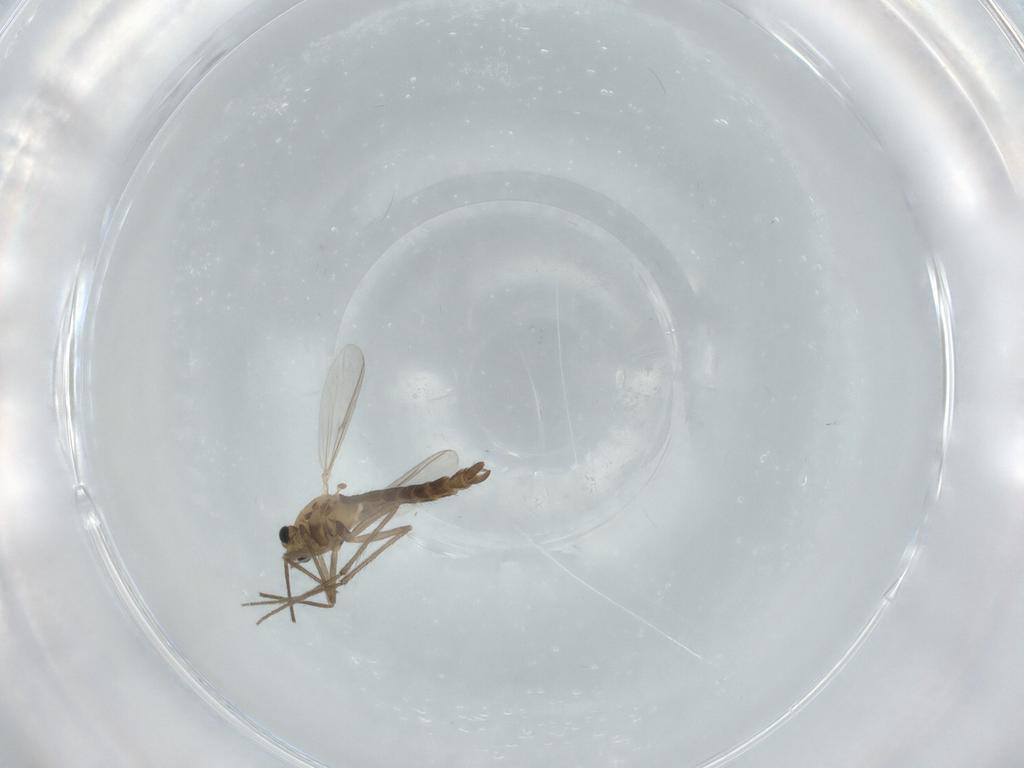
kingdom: Animalia
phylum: Arthropoda
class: Insecta
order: Diptera
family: Chironomidae
